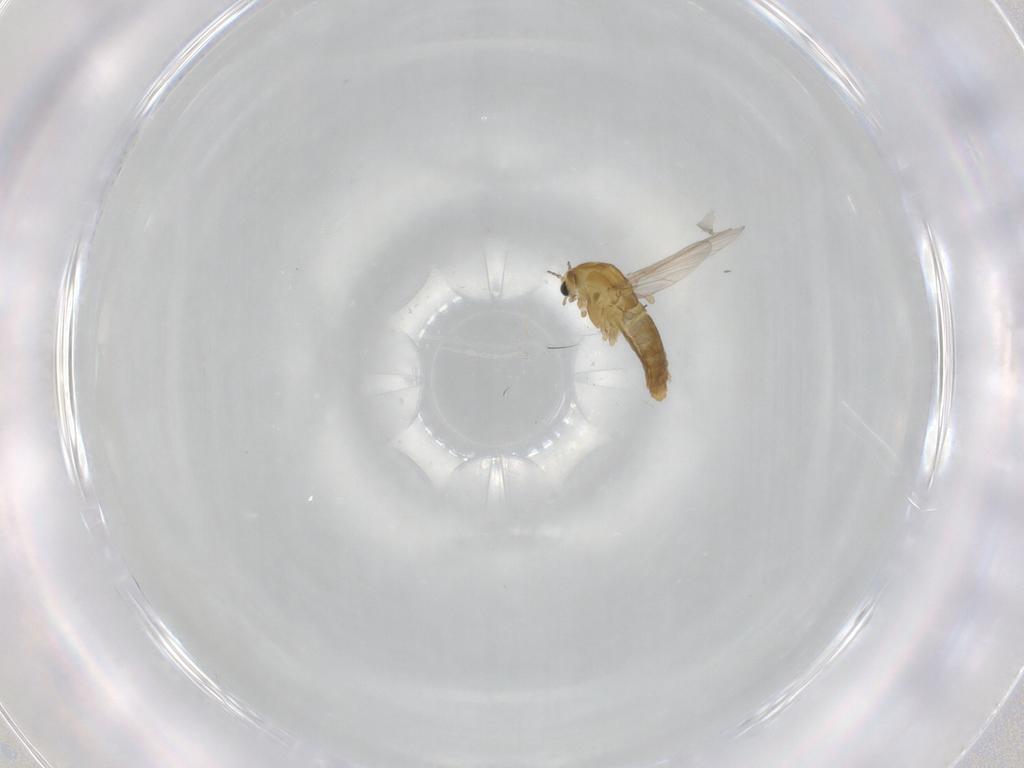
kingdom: Animalia
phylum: Arthropoda
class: Insecta
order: Diptera
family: Chironomidae
